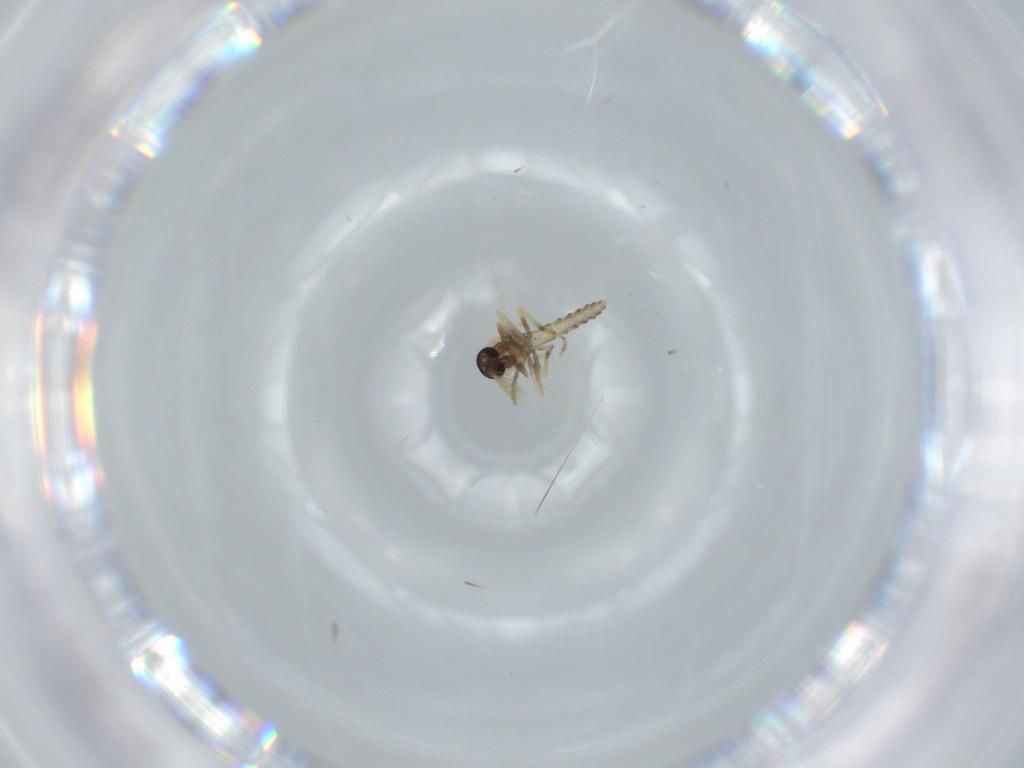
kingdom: Animalia
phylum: Arthropoda
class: Insecta
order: Diptera
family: Ceratopogonidae
